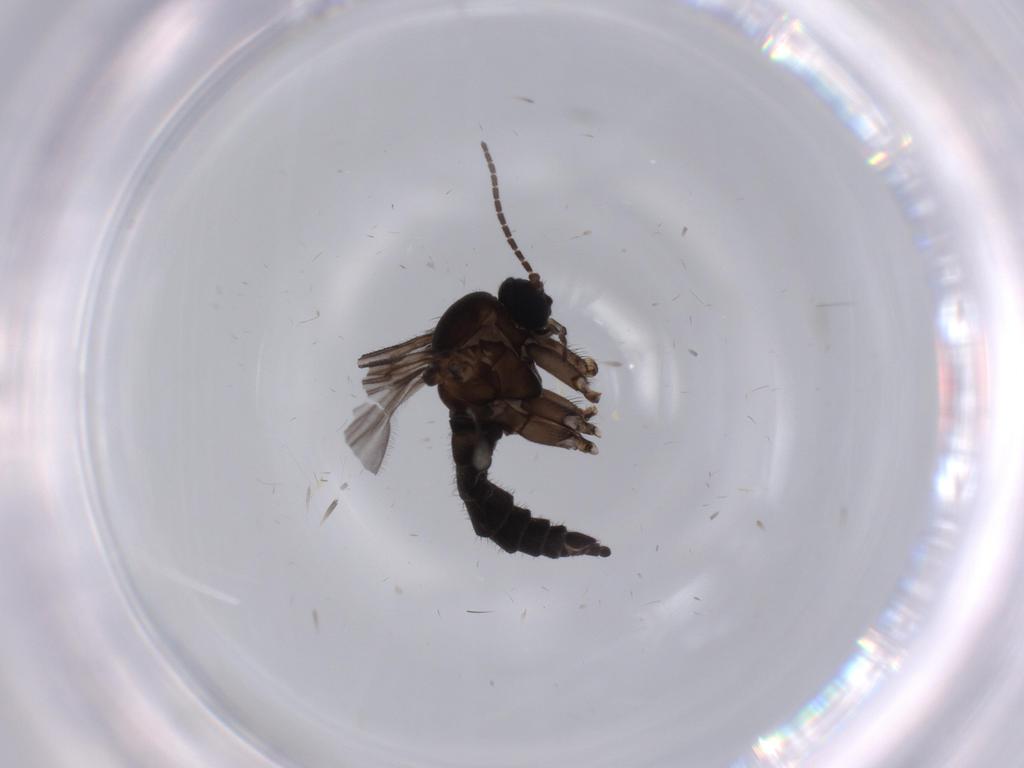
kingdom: Animalia
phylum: Arthropoda
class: Insecta
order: Diptera
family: Sciaridae
